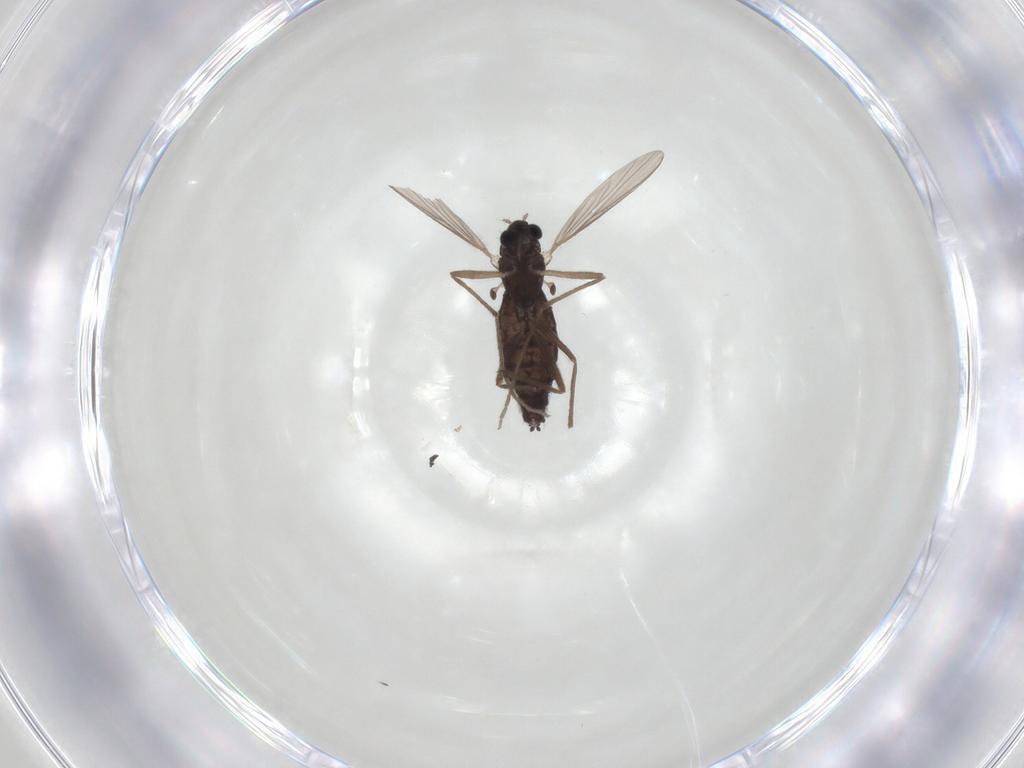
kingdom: Animalia
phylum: Arthropoda
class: Insecta
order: Diptera
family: Chironomidae
